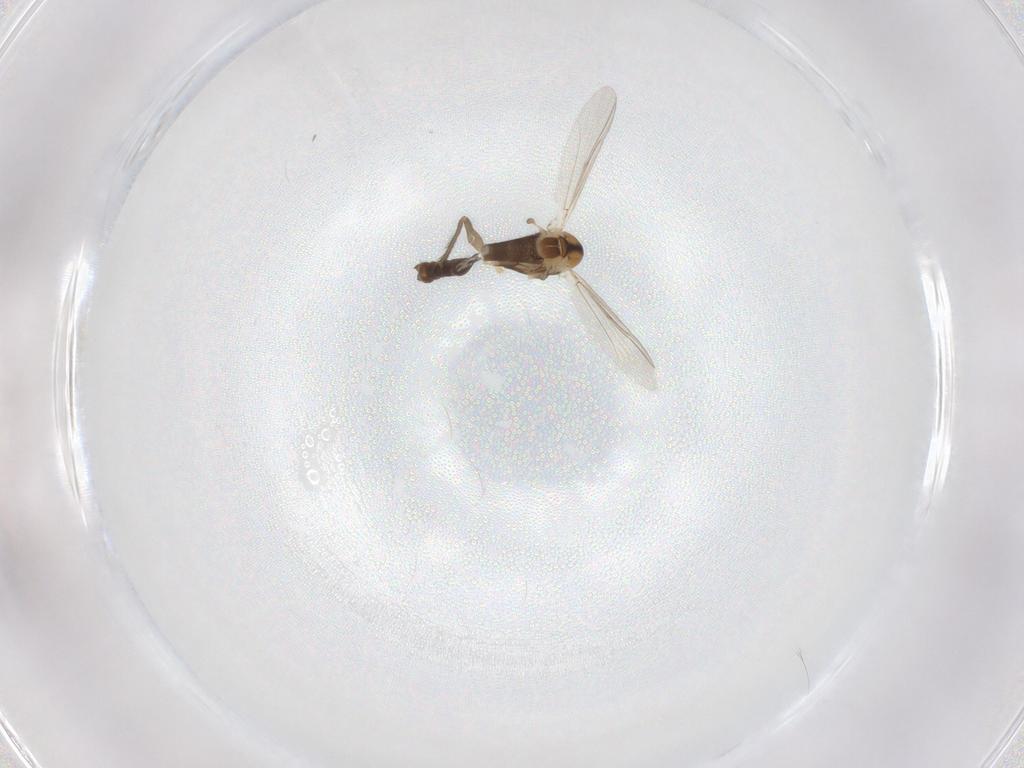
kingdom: Animalia
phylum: Arthropoda
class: Insecta
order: Diptera
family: Chironomidae
